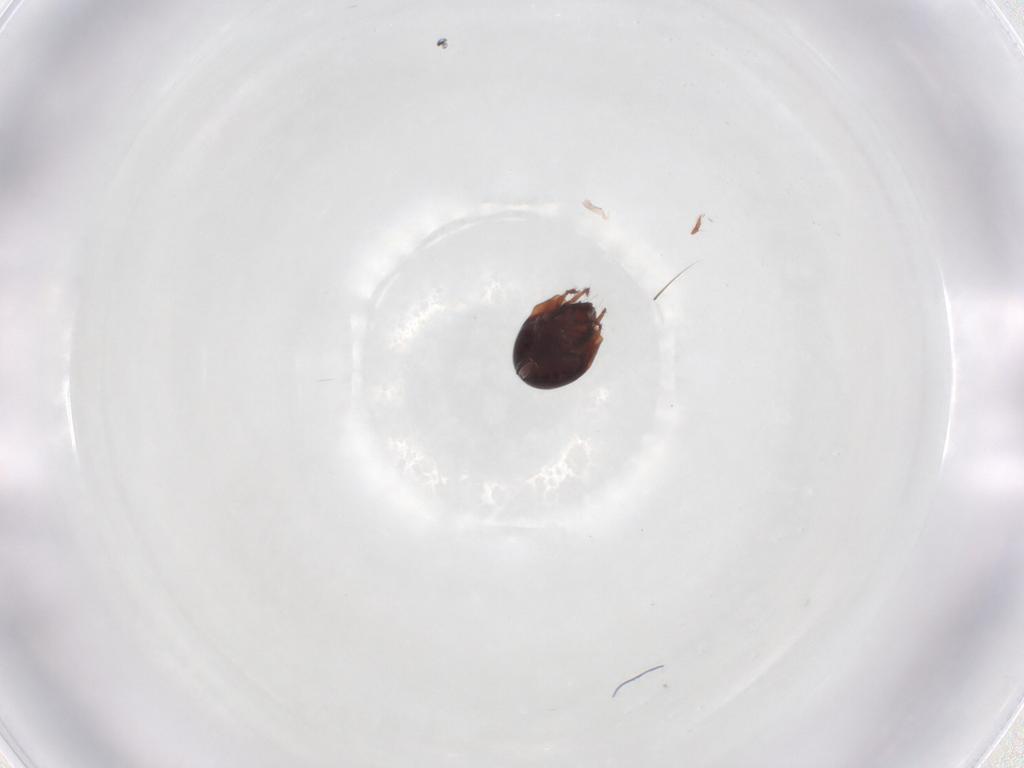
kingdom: Animalia
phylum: Arthropoda
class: Arachnida
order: Sarcoptiformes
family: Humerobatidae
